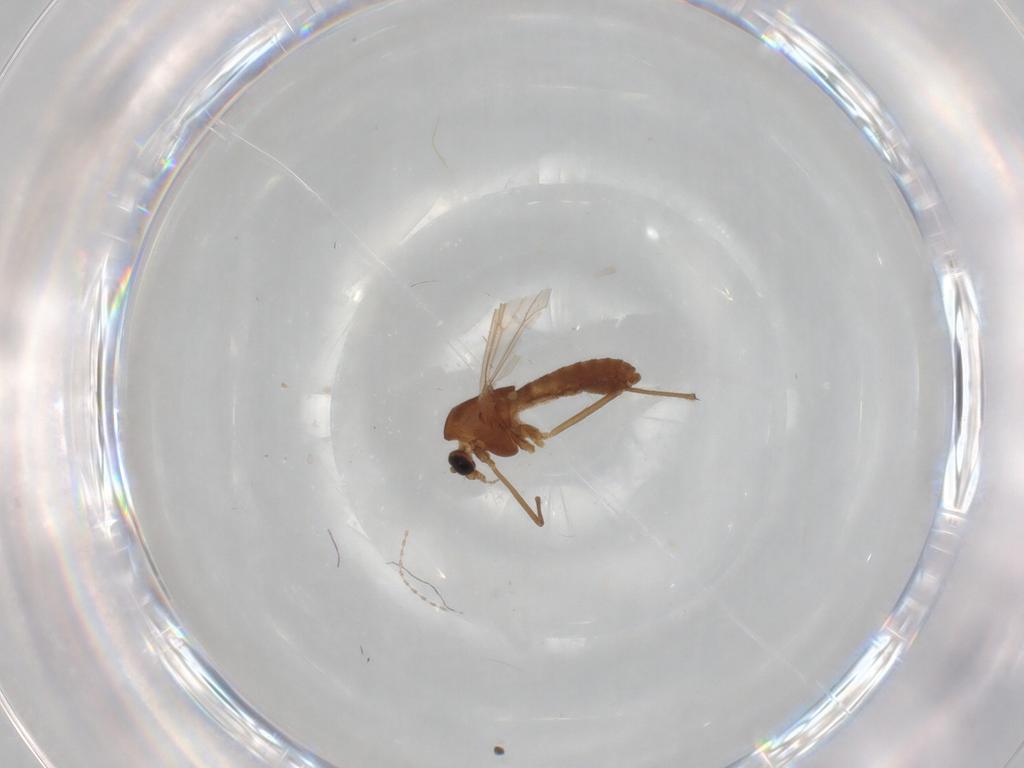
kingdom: Animalia
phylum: Arthropoda
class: Insecta
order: Diptera
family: Chironomidae
